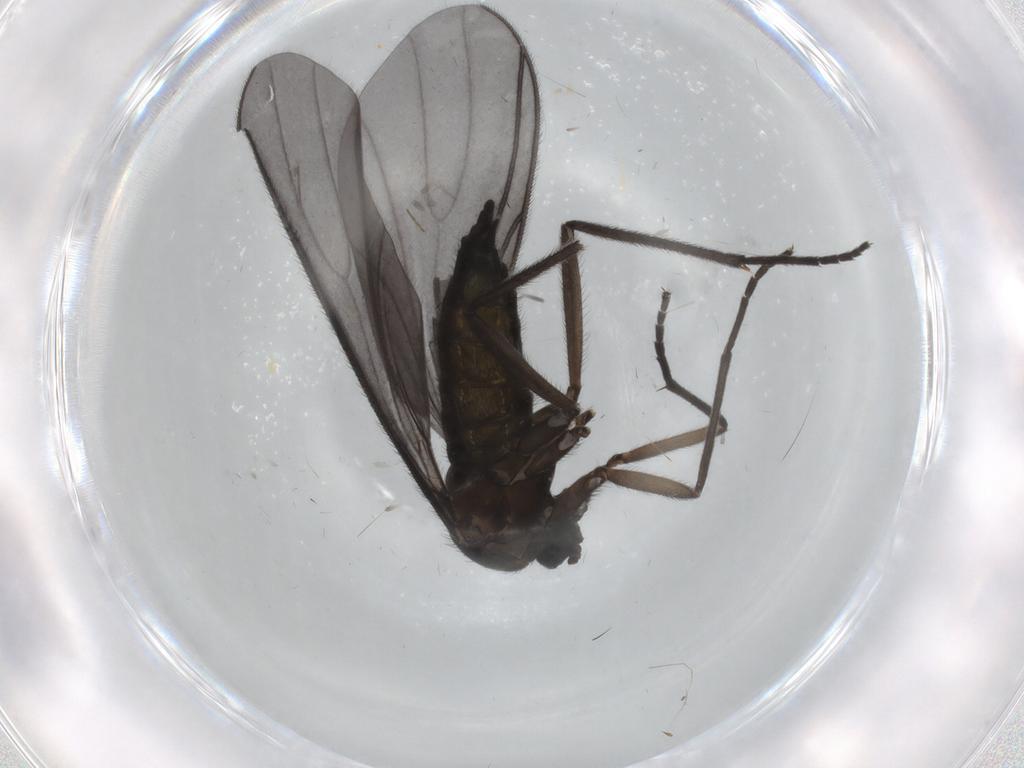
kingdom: Animalia
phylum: Arthropoda
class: Insecta
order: Diptera
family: Sciaridae
